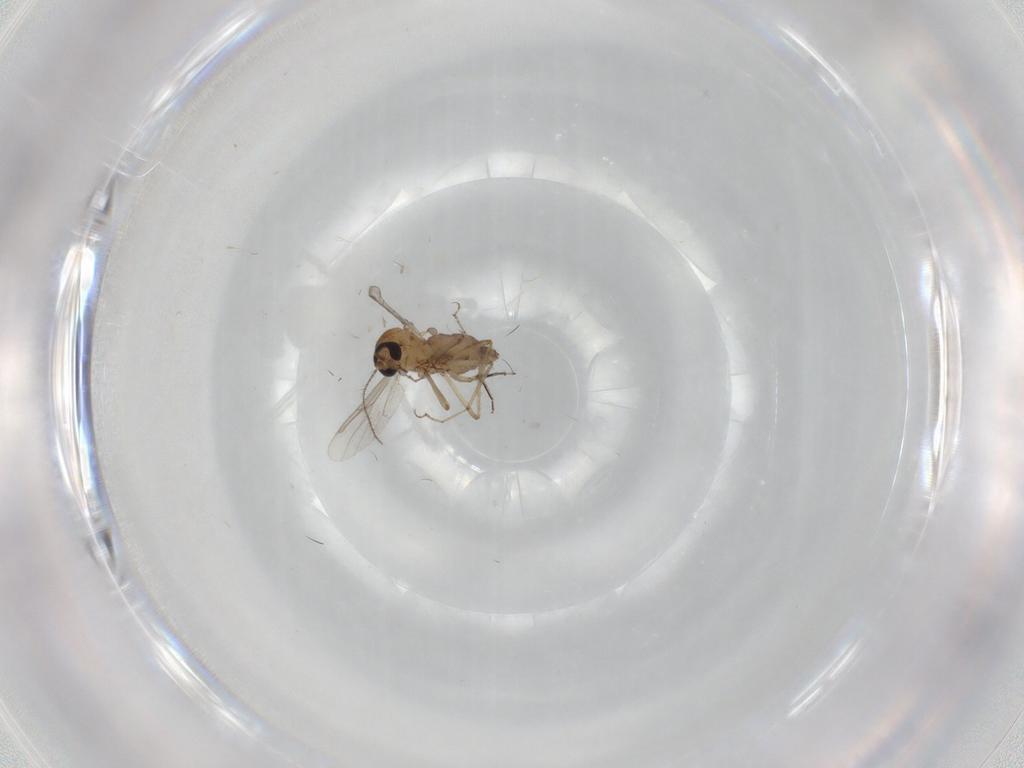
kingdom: Animalia
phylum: Arthropoda
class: Insecta
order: Diptera
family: Ceratopogonidae
